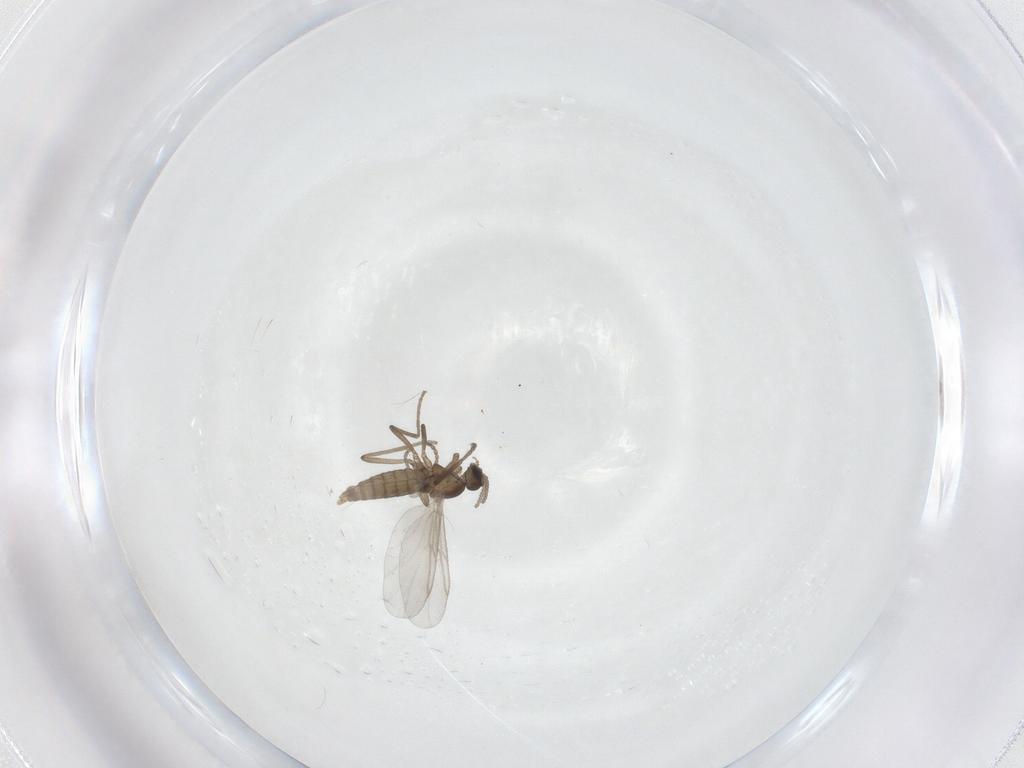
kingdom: Animalia
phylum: Arthropoda
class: Insecta
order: Diptera
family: Cecidomyiidae
